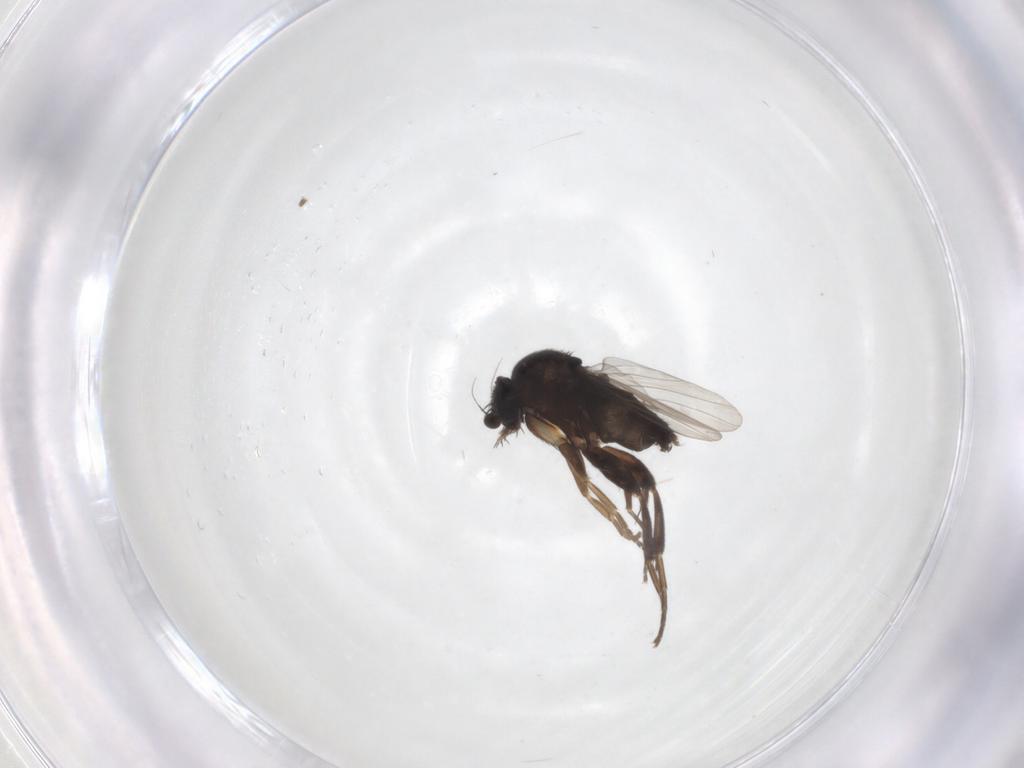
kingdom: Animalia
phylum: Arthropoda
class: Insecta
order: Diptera
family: Phoridae
